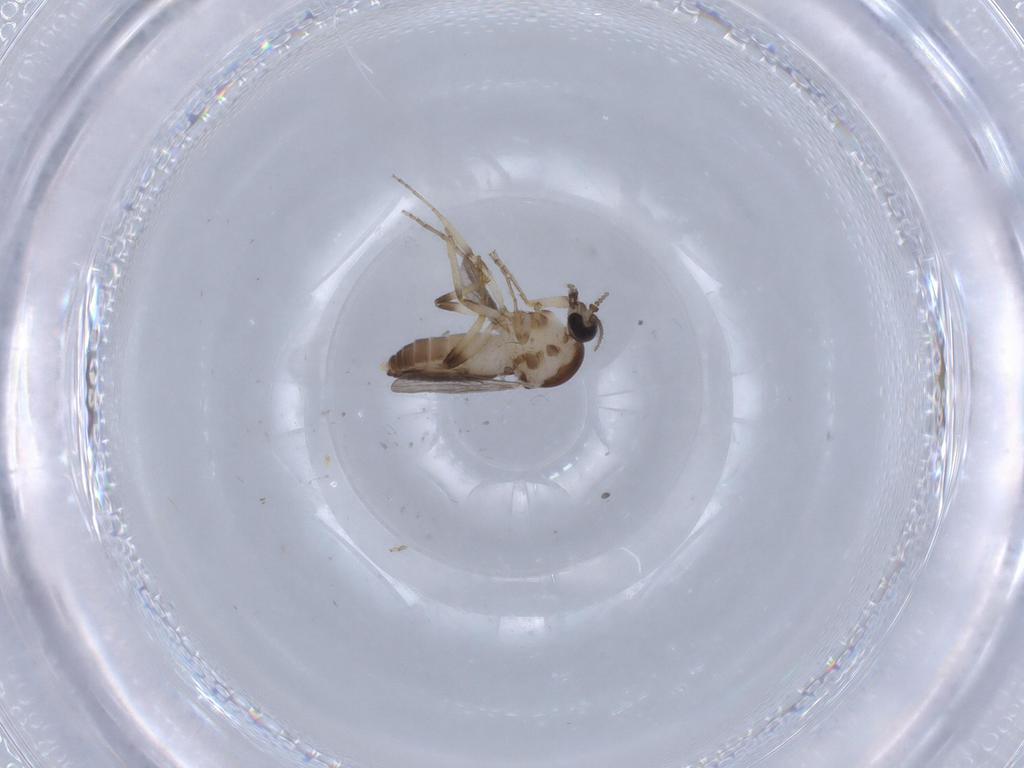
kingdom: Animalia
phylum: Arthropoda
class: Insecta
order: Diptera
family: Ceratopogonidae
